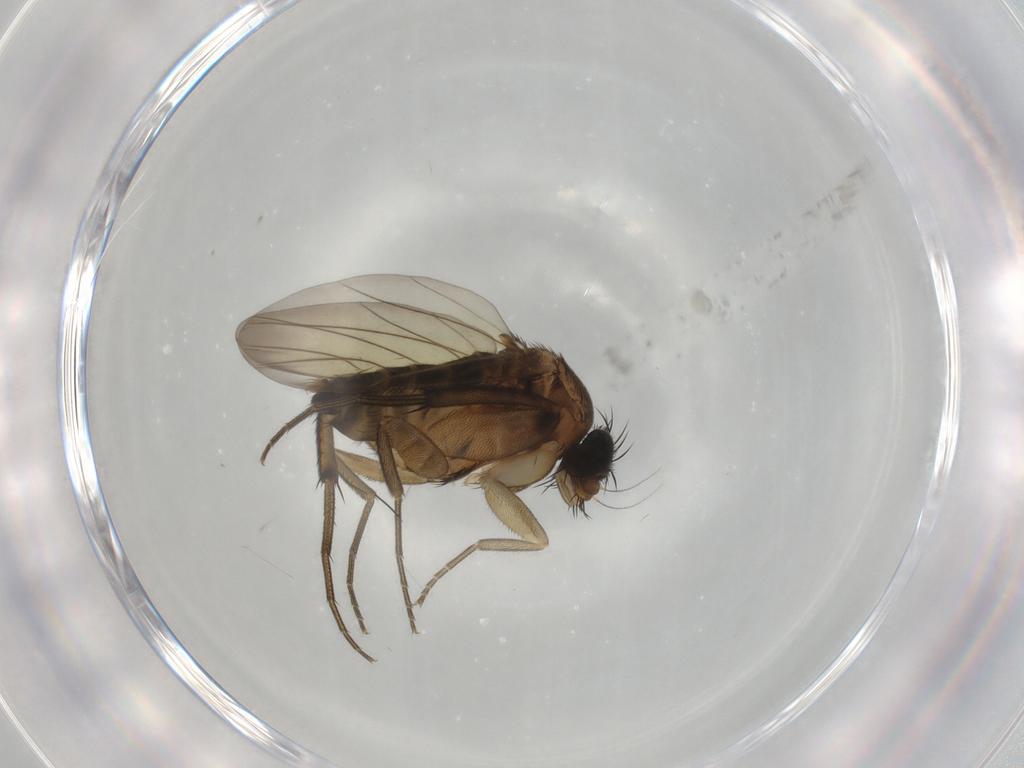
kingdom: Animalia
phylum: Arthropoda
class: Insecta
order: Diptera
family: Phoridae
